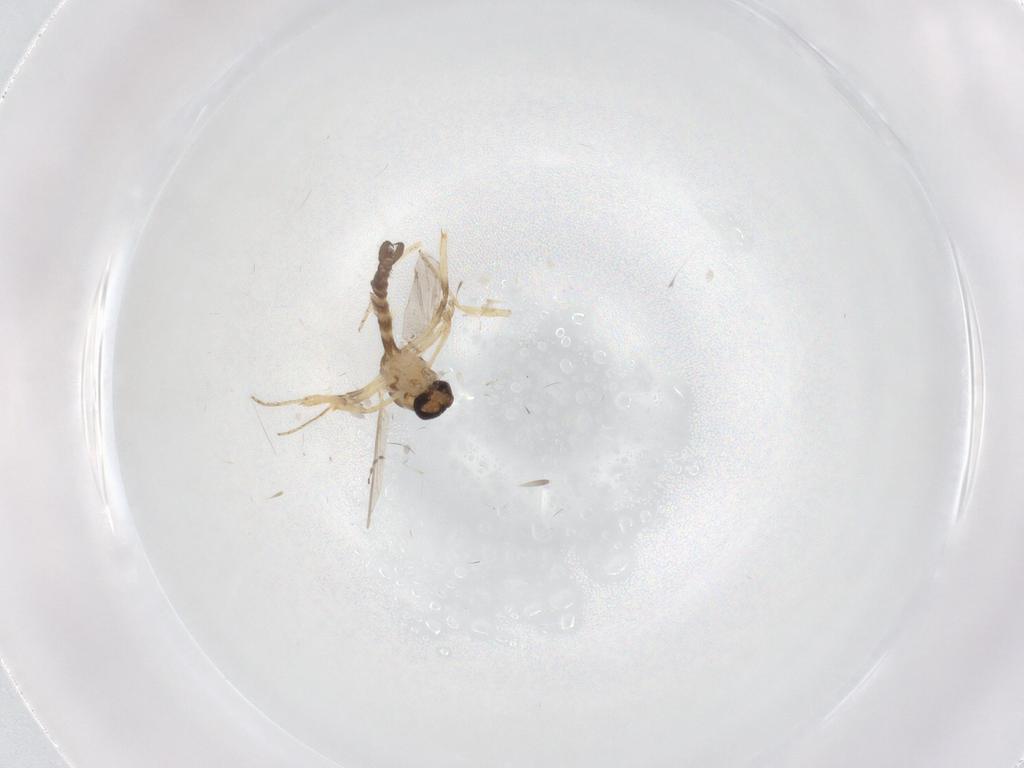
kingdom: Animalia
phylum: Arthropoda
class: Insecta
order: Diptera
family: Ceratopogonidae
